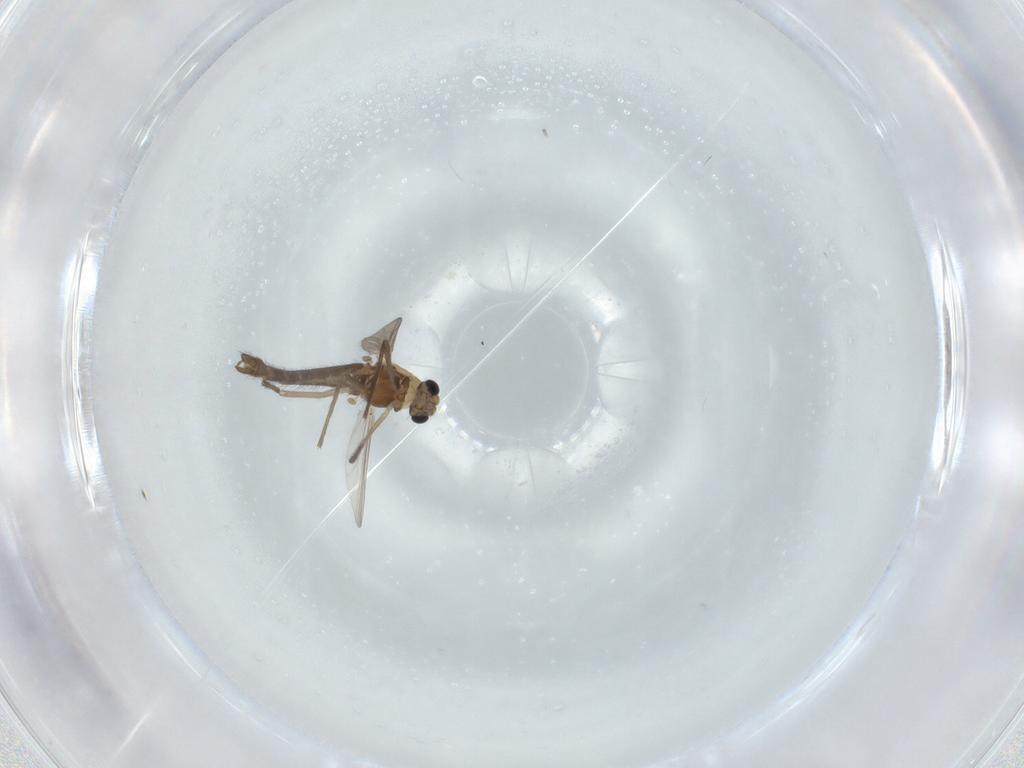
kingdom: Animalia
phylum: Arthropoda
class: Insecta
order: Diptera
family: Chironomidae
